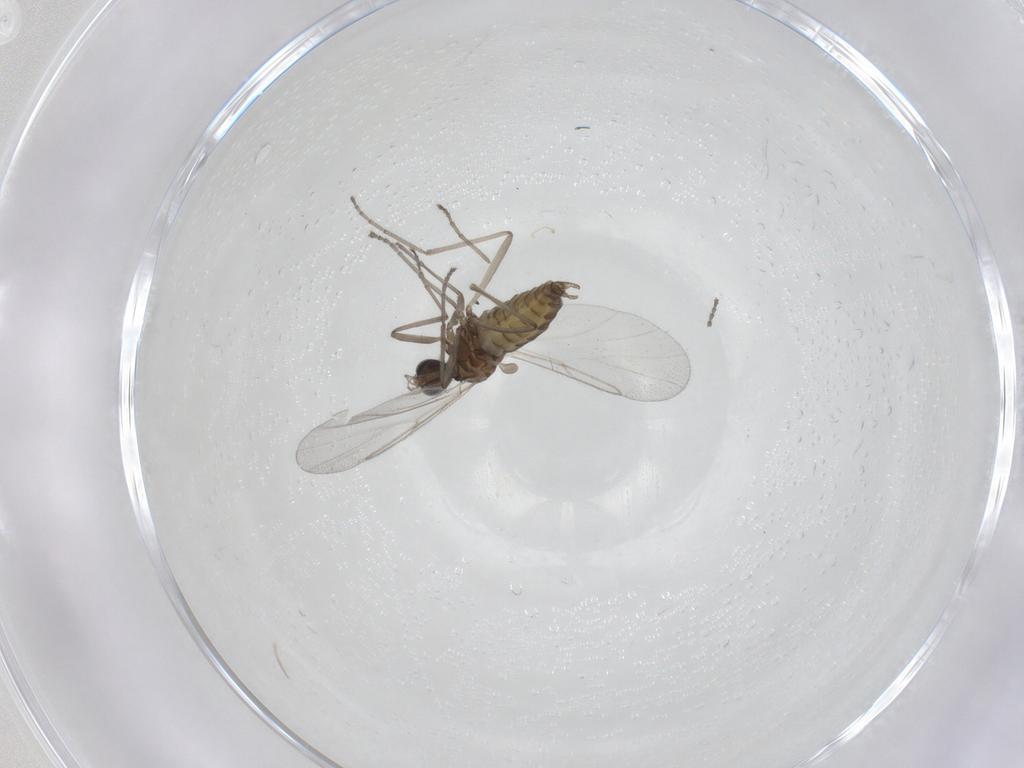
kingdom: Animalia
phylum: Arthropoda
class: Insecta
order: Diptera
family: Cecidomyiidae
